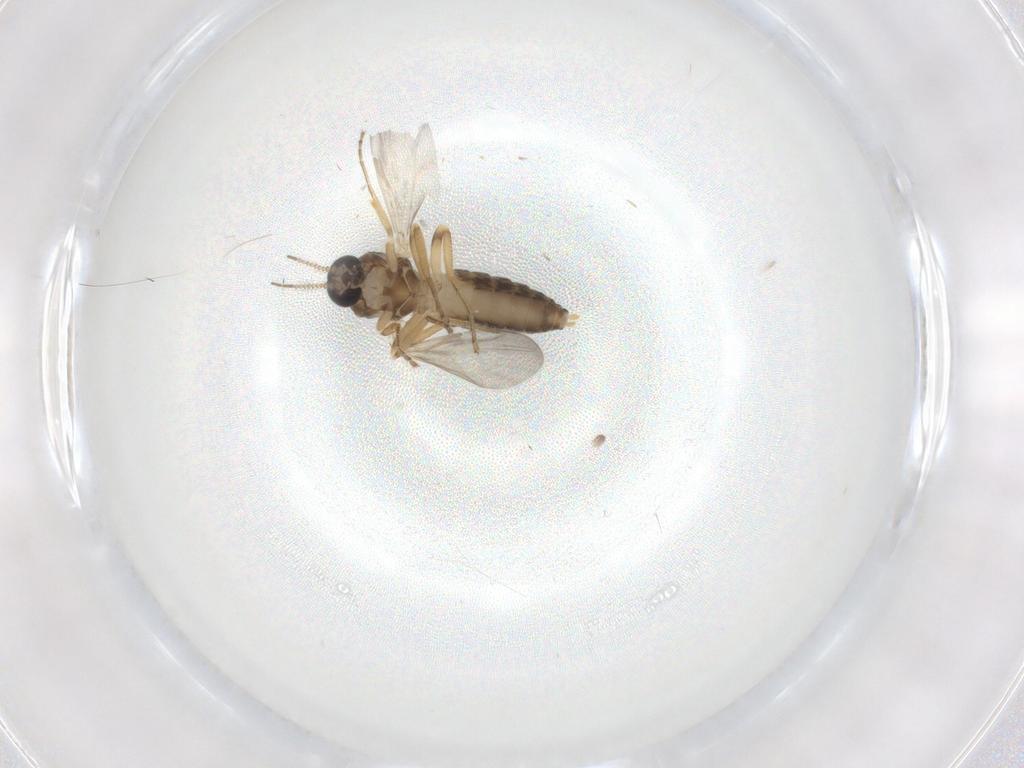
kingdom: Animalia
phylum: Arthropoda
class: Insecta
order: Diptera
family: Ceratopogonidae
